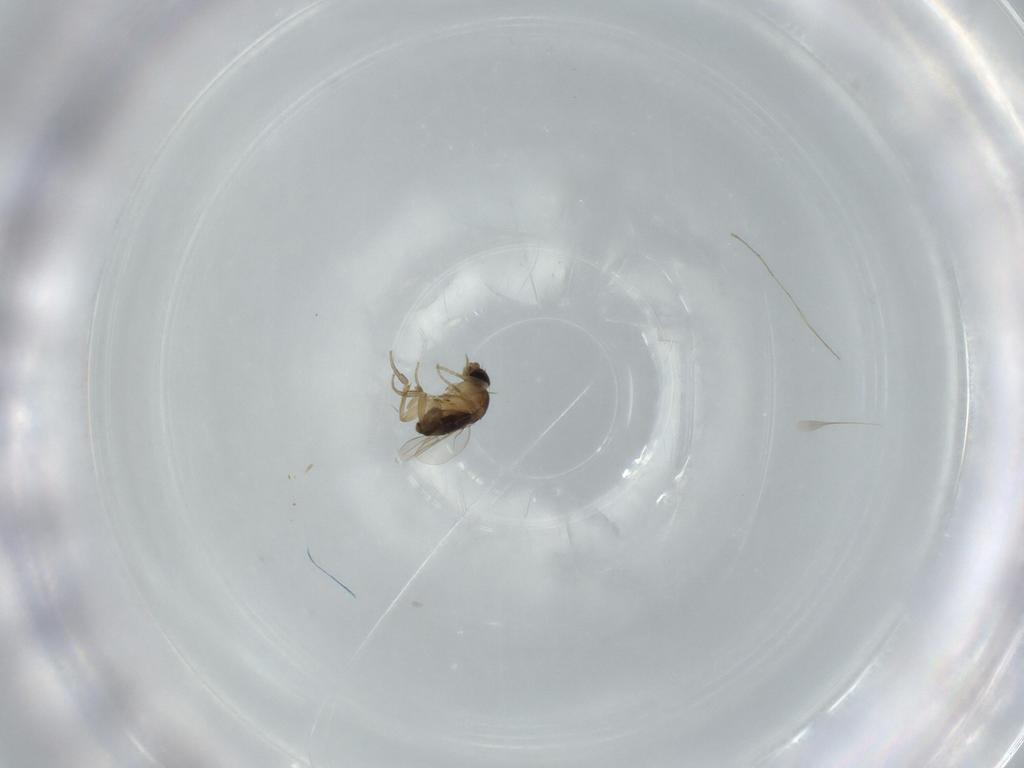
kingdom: Animalia
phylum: Arthropoda
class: Insecta
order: Diptera
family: Phoridae
